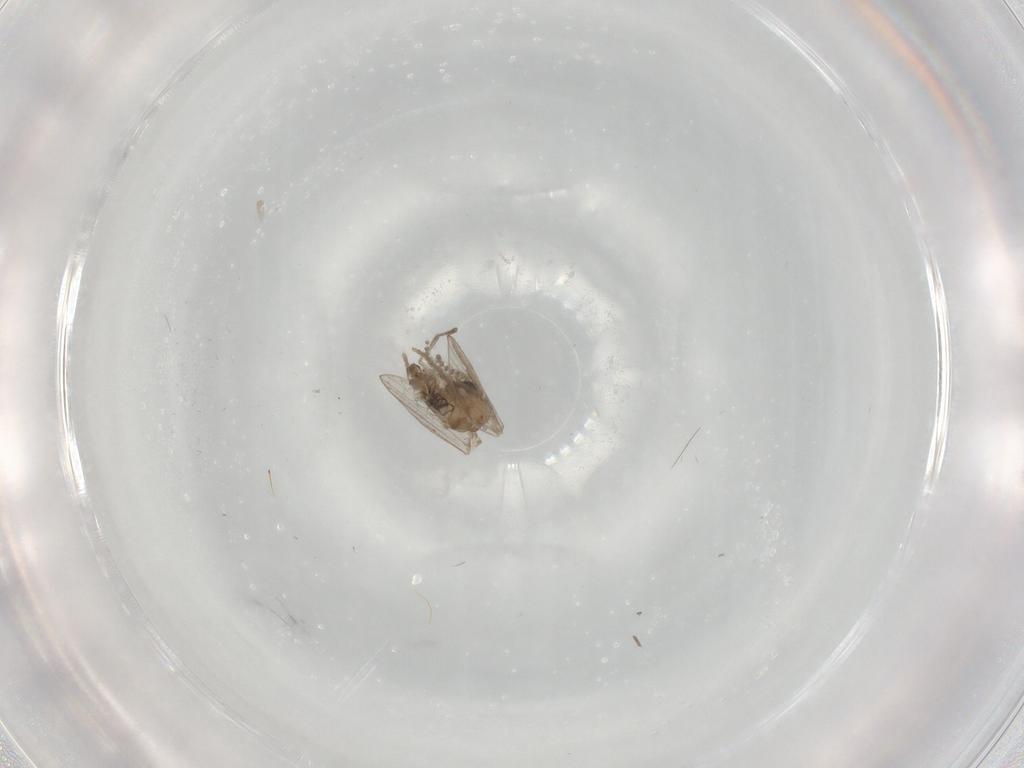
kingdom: Animalia
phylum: Arthropoda
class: Insecta
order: Diptera
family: Psychodidae
